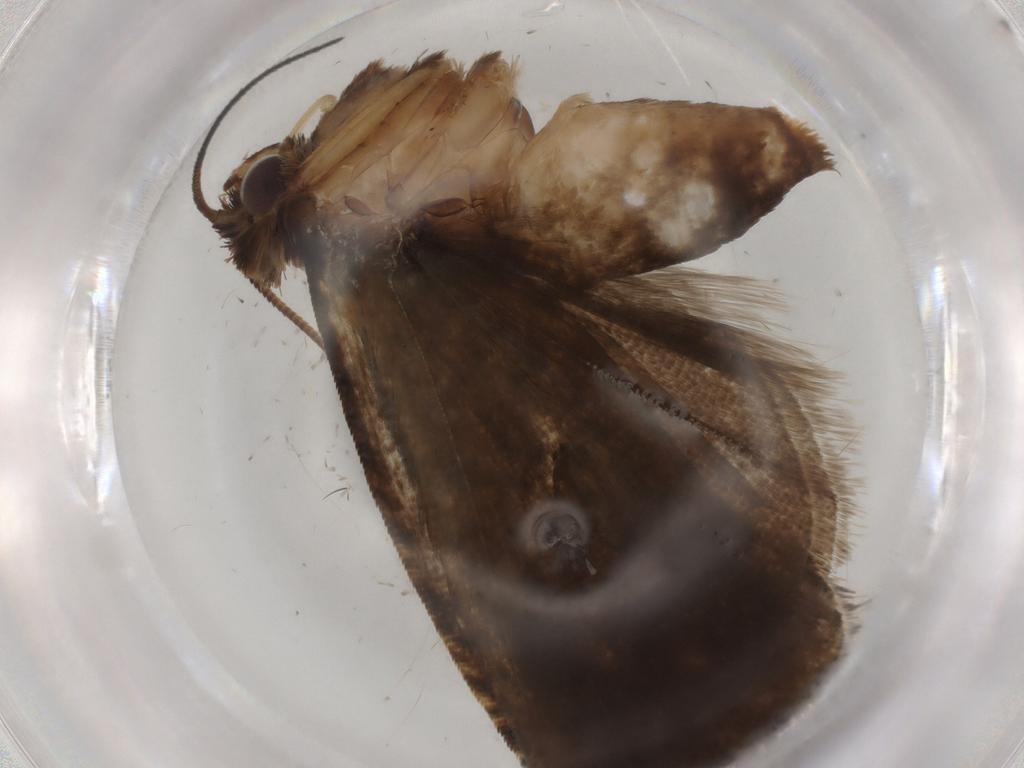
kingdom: Animalia
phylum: Arthropoda
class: Insecta
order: Lepidoptera
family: Tortricidae
